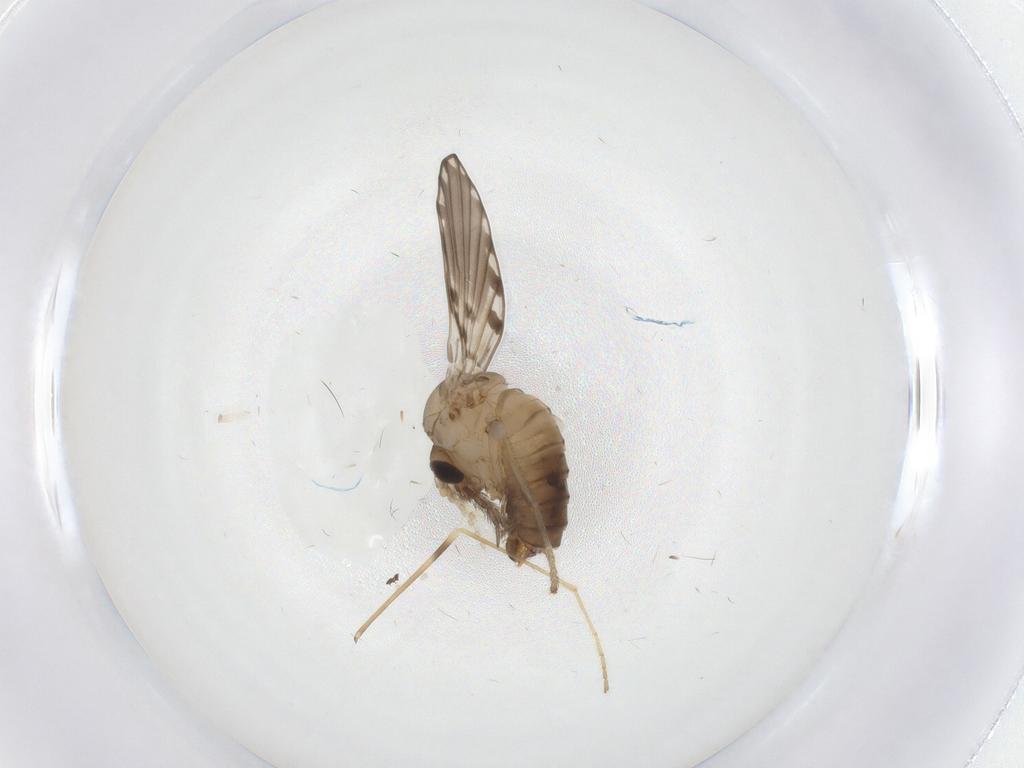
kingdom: Animalia
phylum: Arthropoda
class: Insecta
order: Diptera
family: Psychodidae
